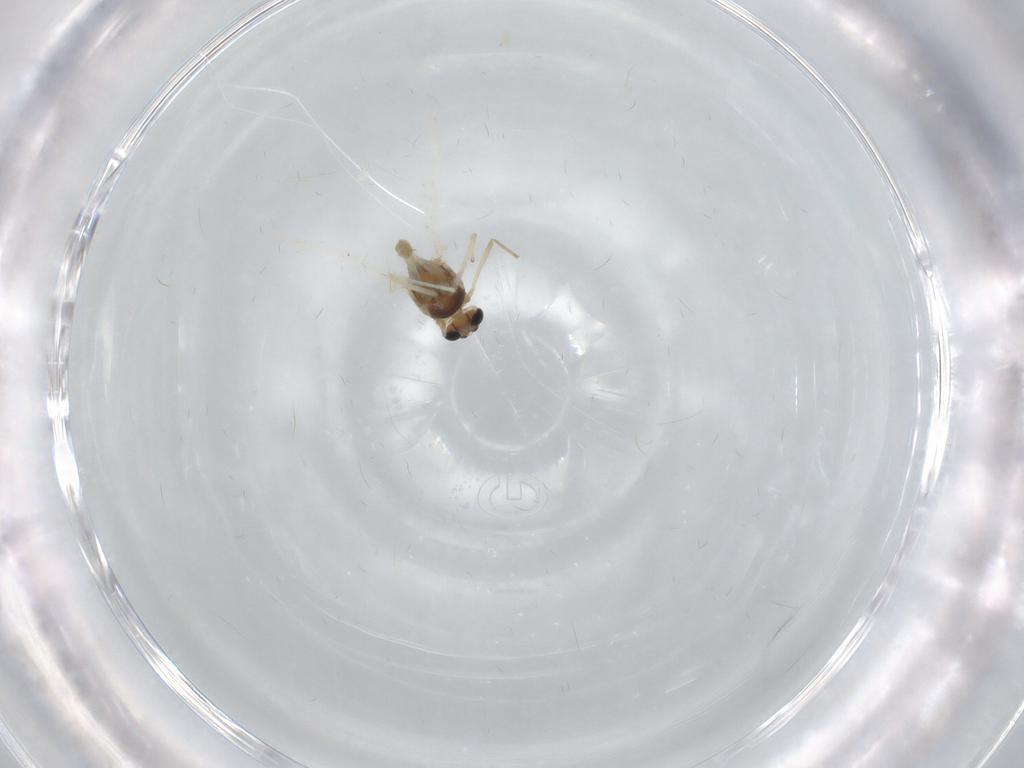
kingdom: Animalia
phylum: Arthropoda
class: Insecta
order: Diptera
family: Chironomidae
